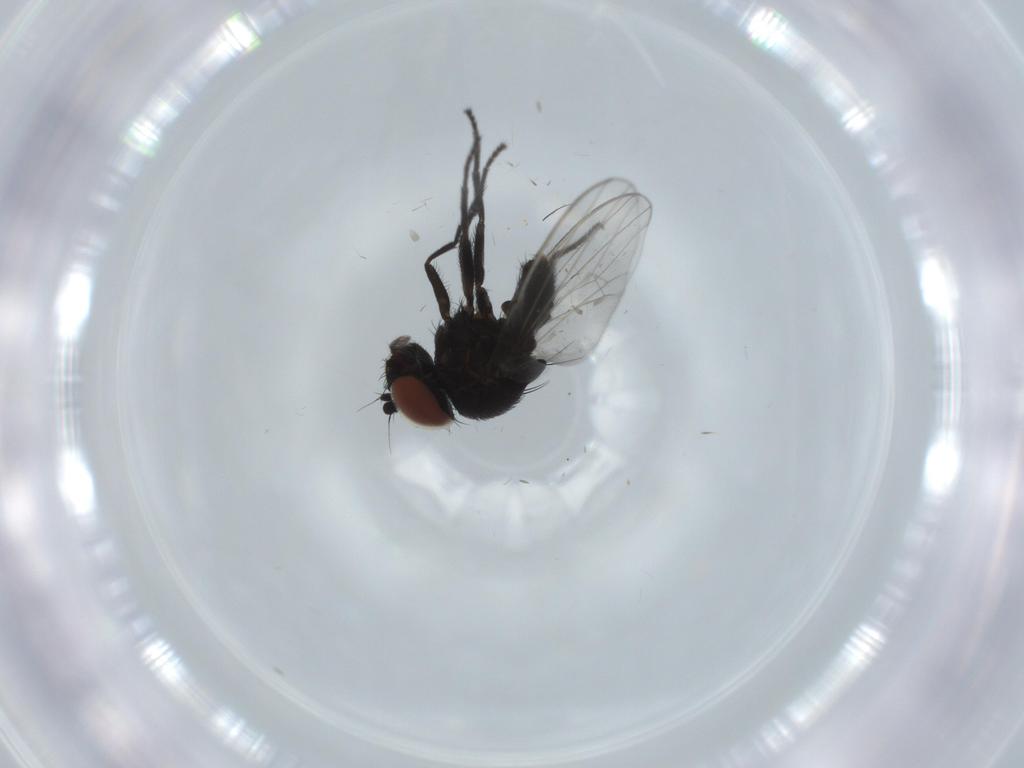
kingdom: Animalia
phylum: Arthropoda
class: Insecta
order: Diptera
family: Milichiidae
